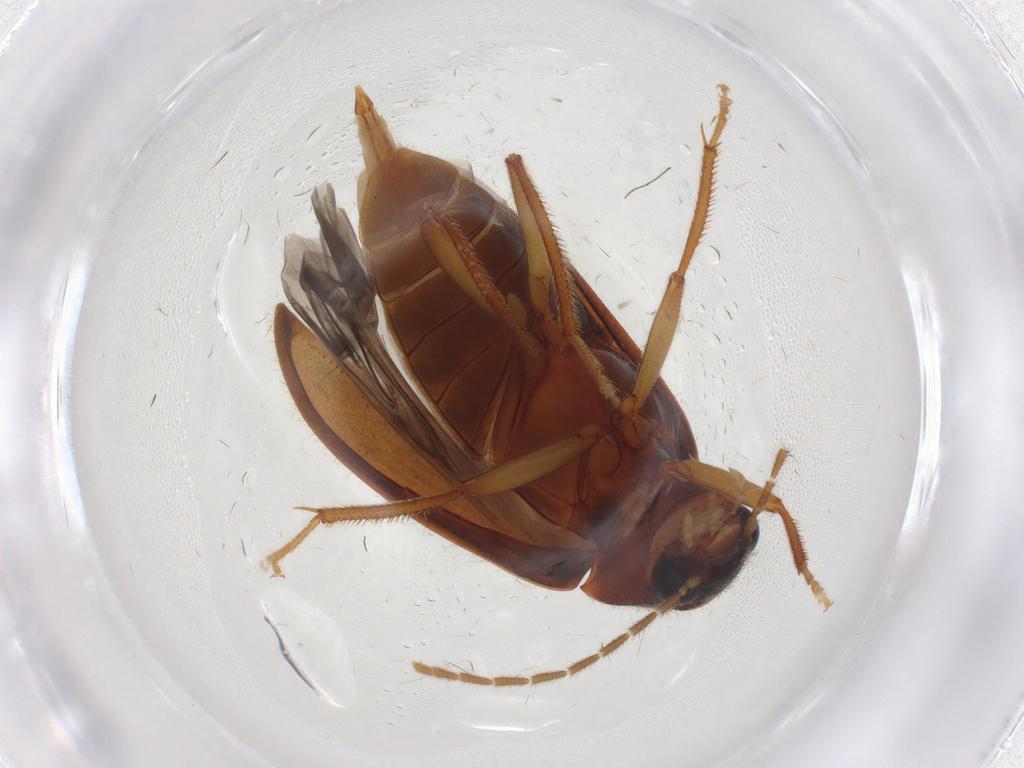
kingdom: Animalia
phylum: Arthropoda
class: Insecta
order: Coleoptera
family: Ptilodactylidae
